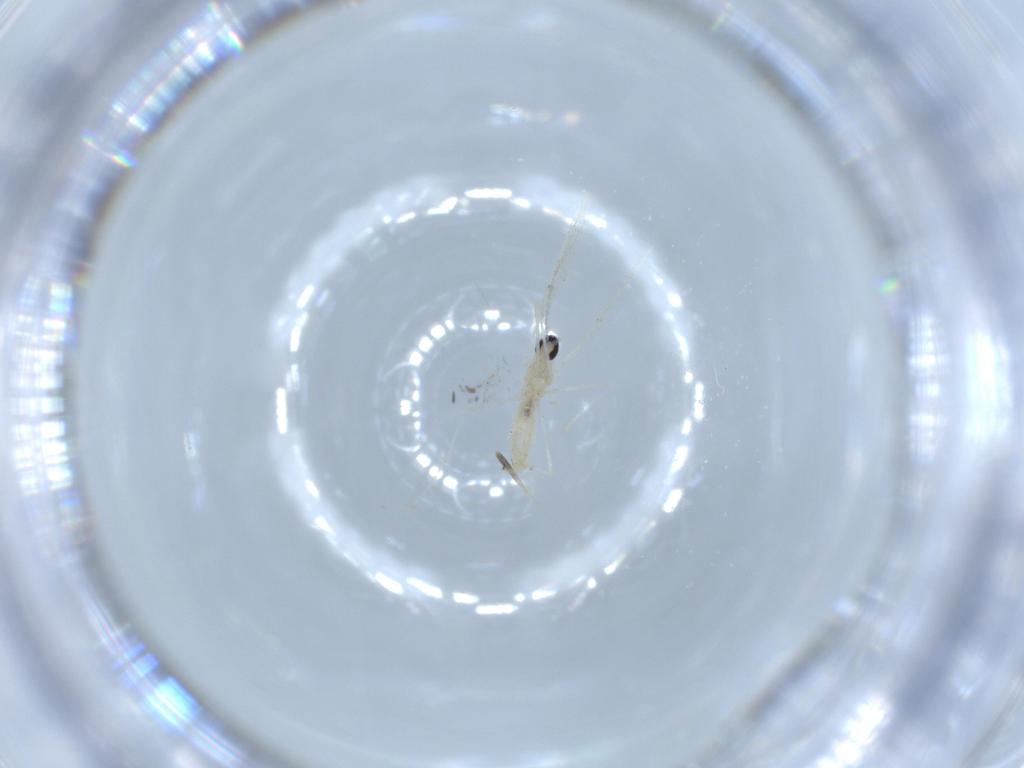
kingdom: Animalia
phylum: Arthropoda
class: Insecta
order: Diptera
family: Cecidomyiidae
